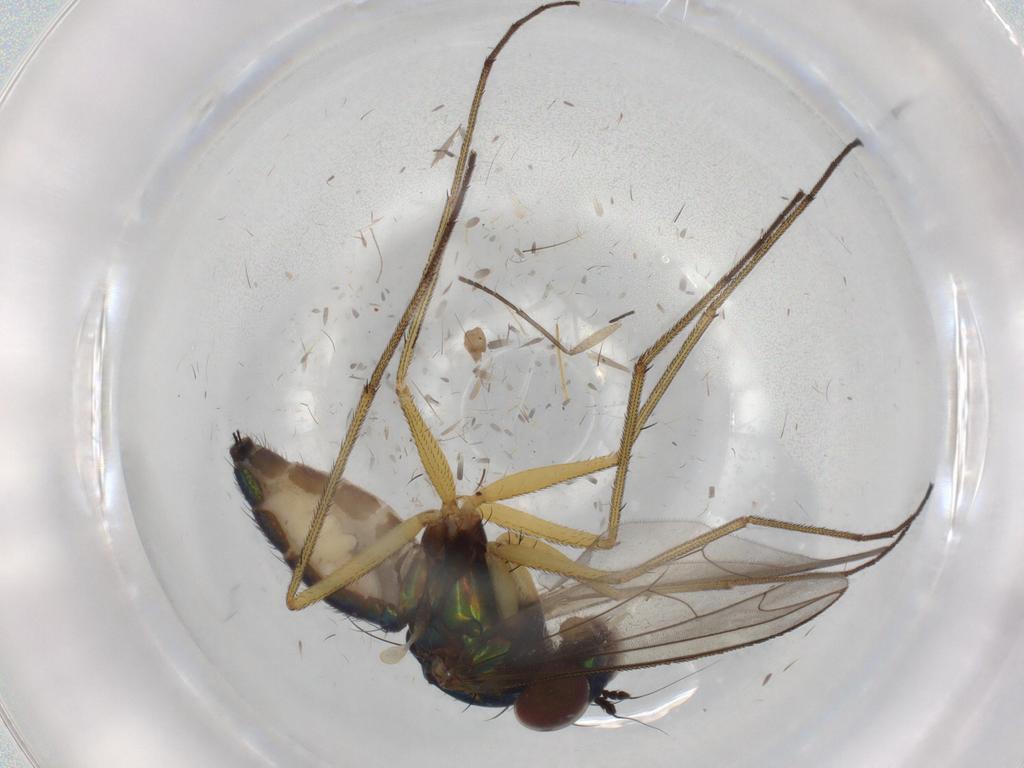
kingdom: Animalia
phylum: Arthropoda
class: Insecta
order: Diptera
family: Dolichopodidae
